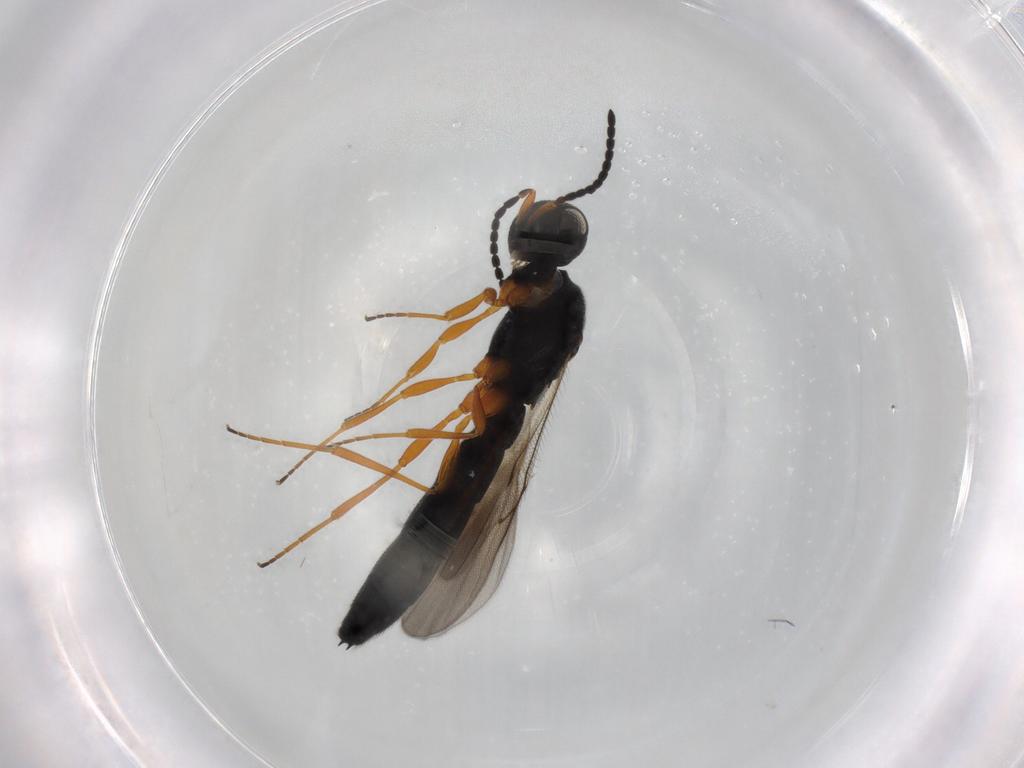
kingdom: Animalia
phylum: Arthropoda
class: Insecta
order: Hymenoptera
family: Scelionidae
